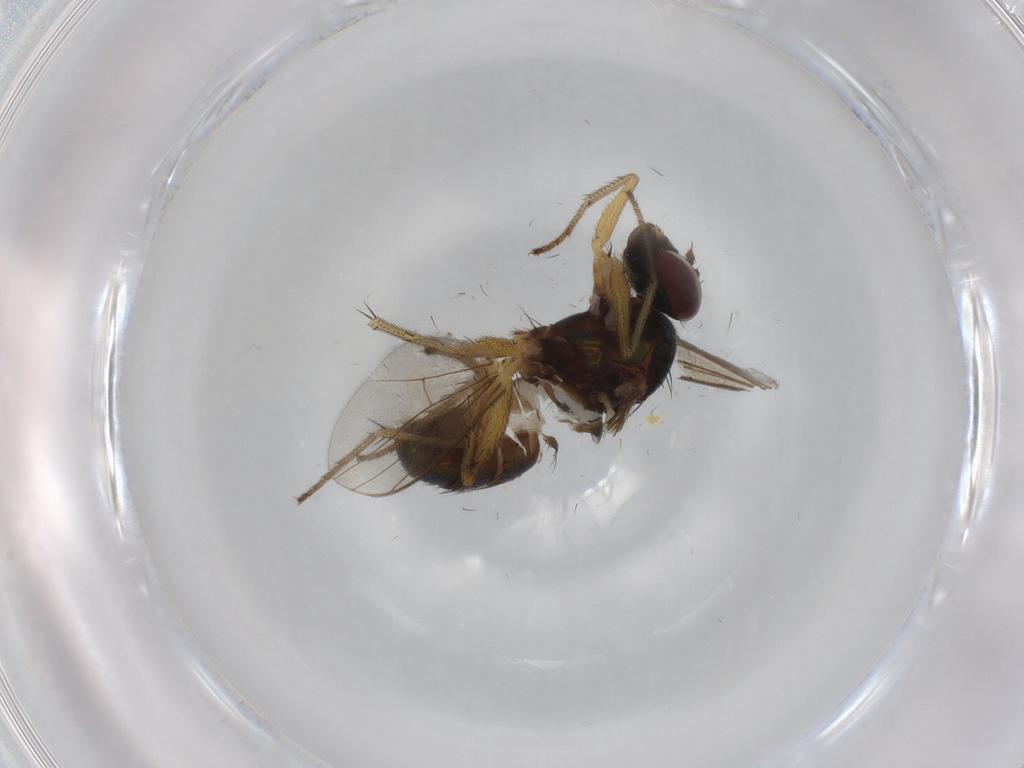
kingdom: Animalia
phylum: Arthropoda
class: Insecta
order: Diptera
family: Dolichopodidae
